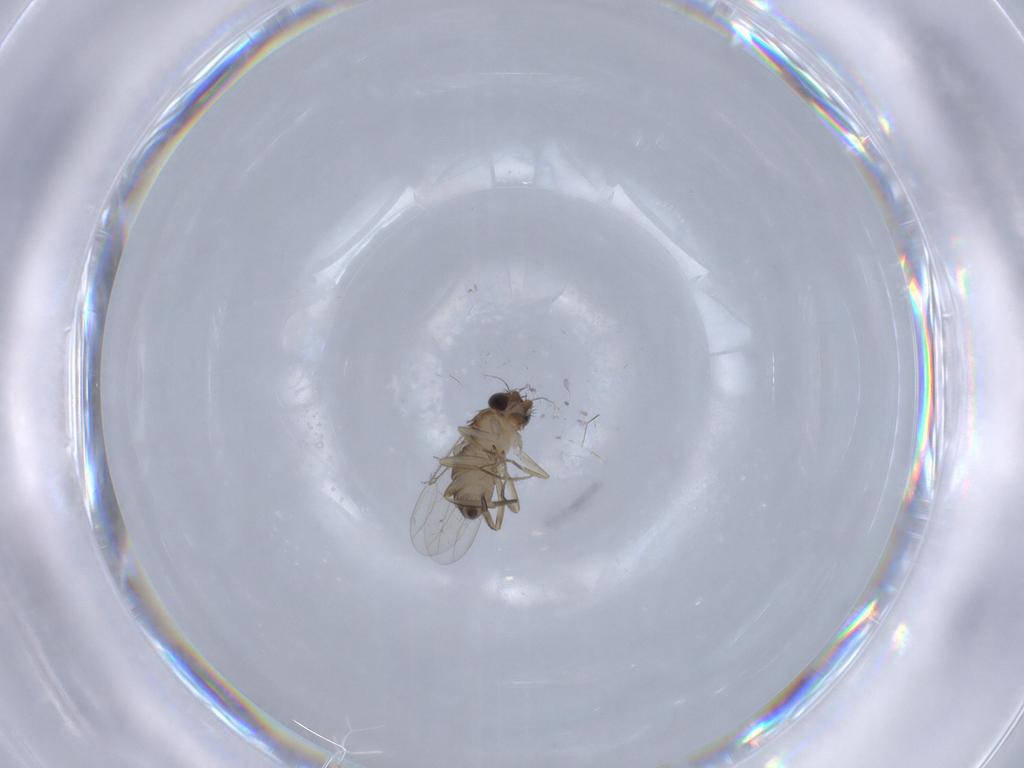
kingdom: Animalia
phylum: Arthropoda
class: Insecta
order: Diptera
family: Phoridae
